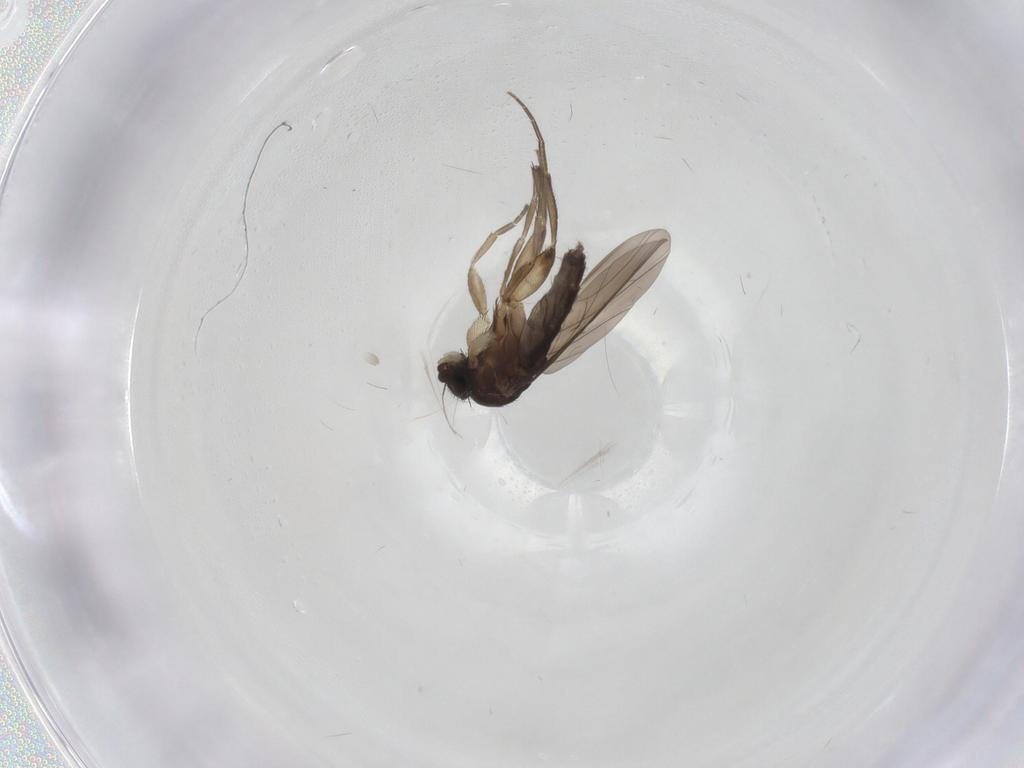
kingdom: Animalia
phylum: Arthropoda
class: Insecta
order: Diptera
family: Phoridae
